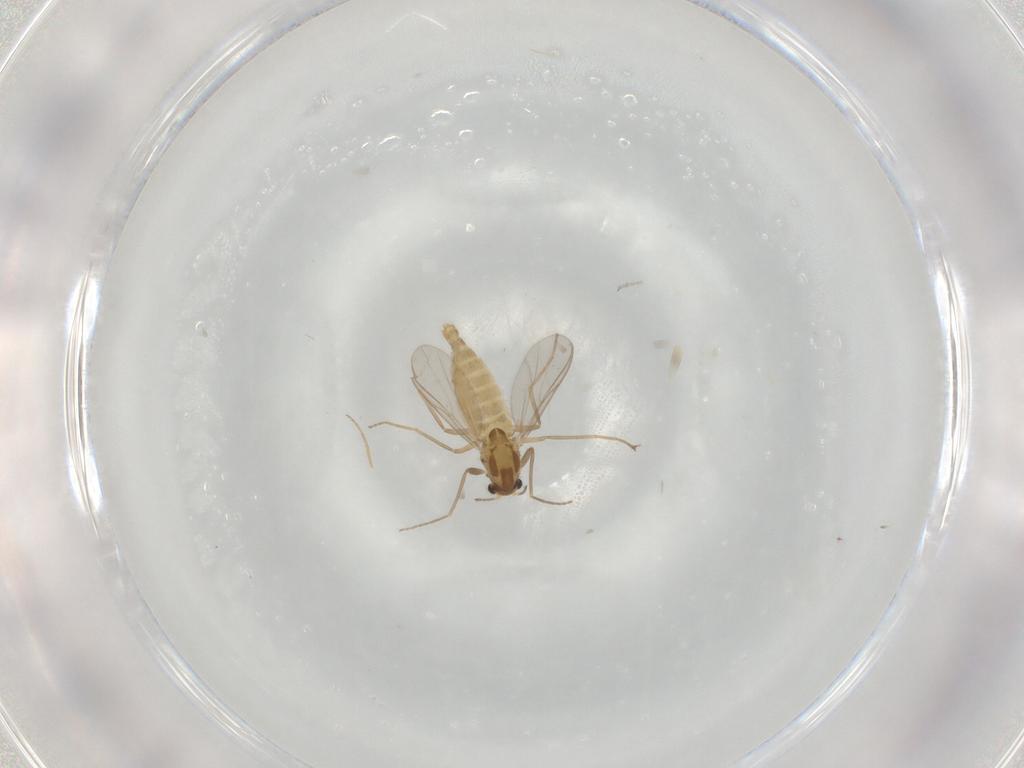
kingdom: Animalia
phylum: Arthropoda
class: Insecta
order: Diptera
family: Chironomidae
